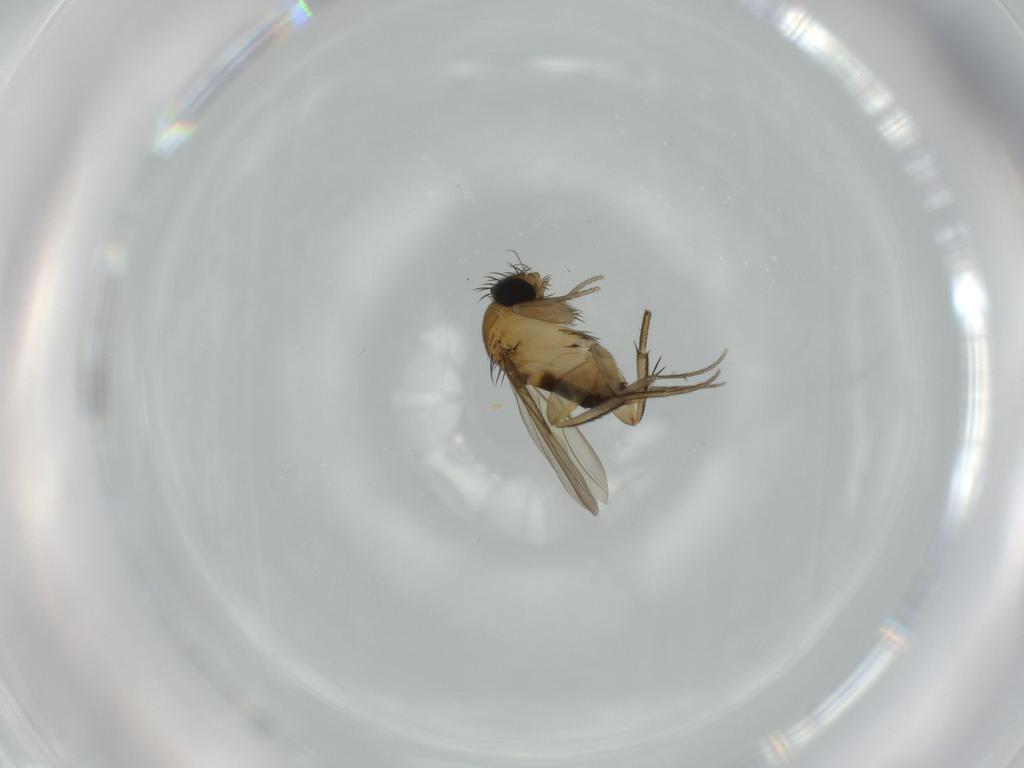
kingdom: Animalia
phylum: Arthropoda
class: Insecta
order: Diptera
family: Phoridae
